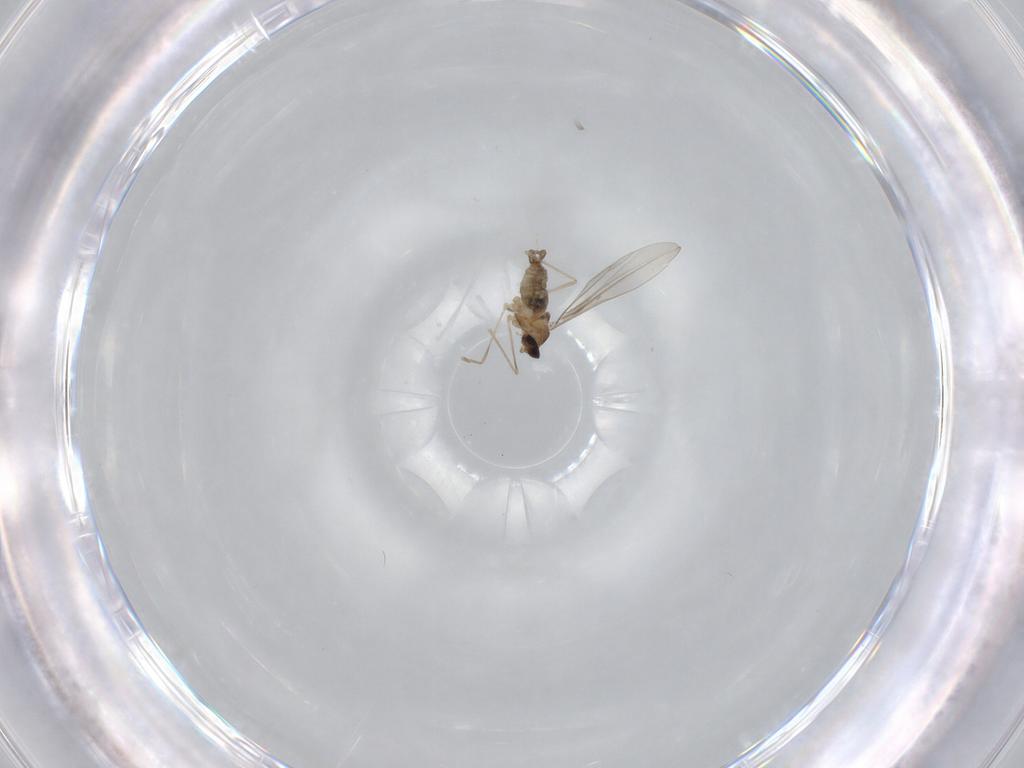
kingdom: Animalia
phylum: Arthropoda
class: Insecta
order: Diptera
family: Cecidomyiidae
